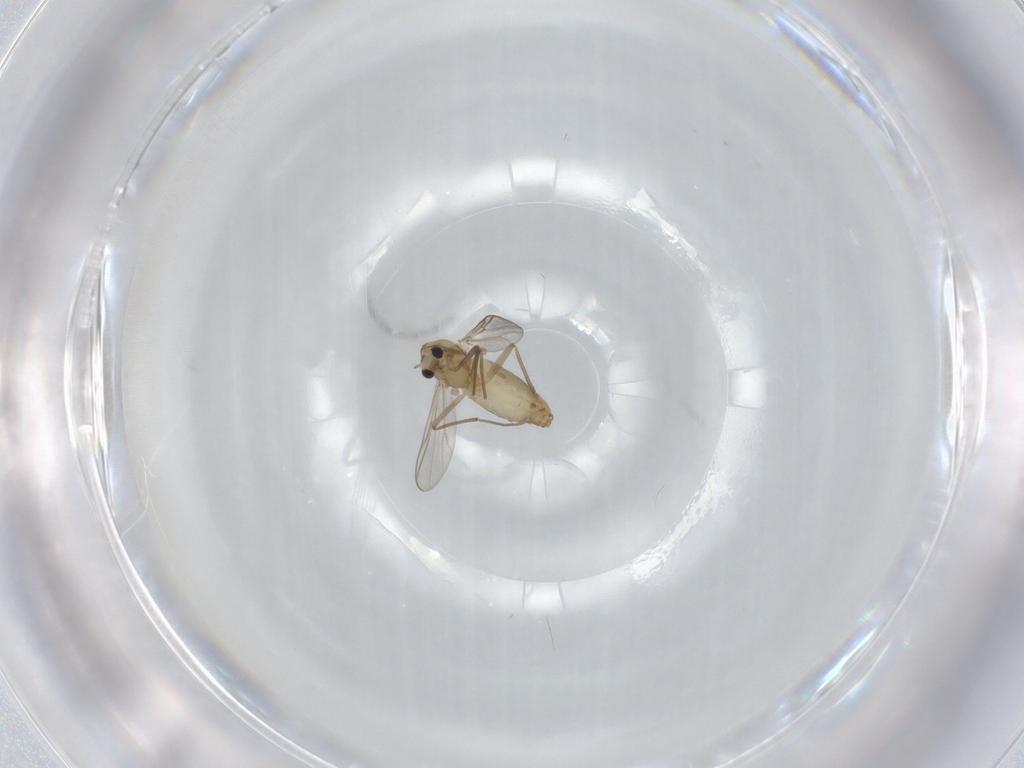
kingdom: Animalia
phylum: Arthropoda
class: Insecta
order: Diptera
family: Chironomidae
